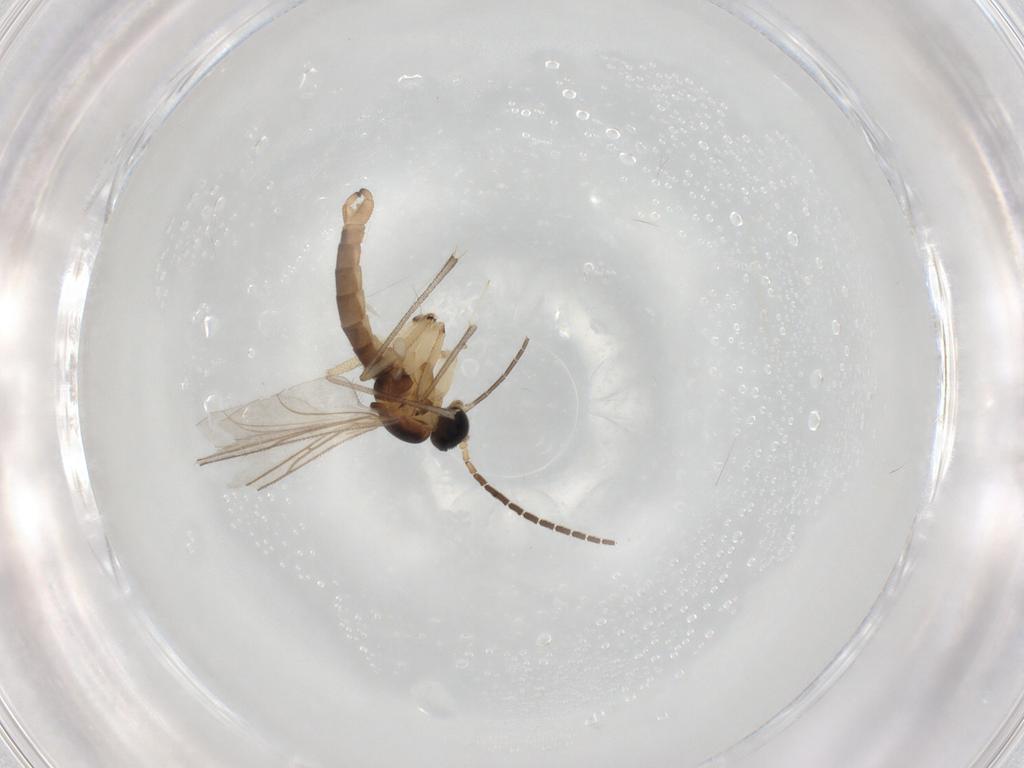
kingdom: Animalia
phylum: Arthropoda
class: Insecta
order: Diptera
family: Sciaridae
